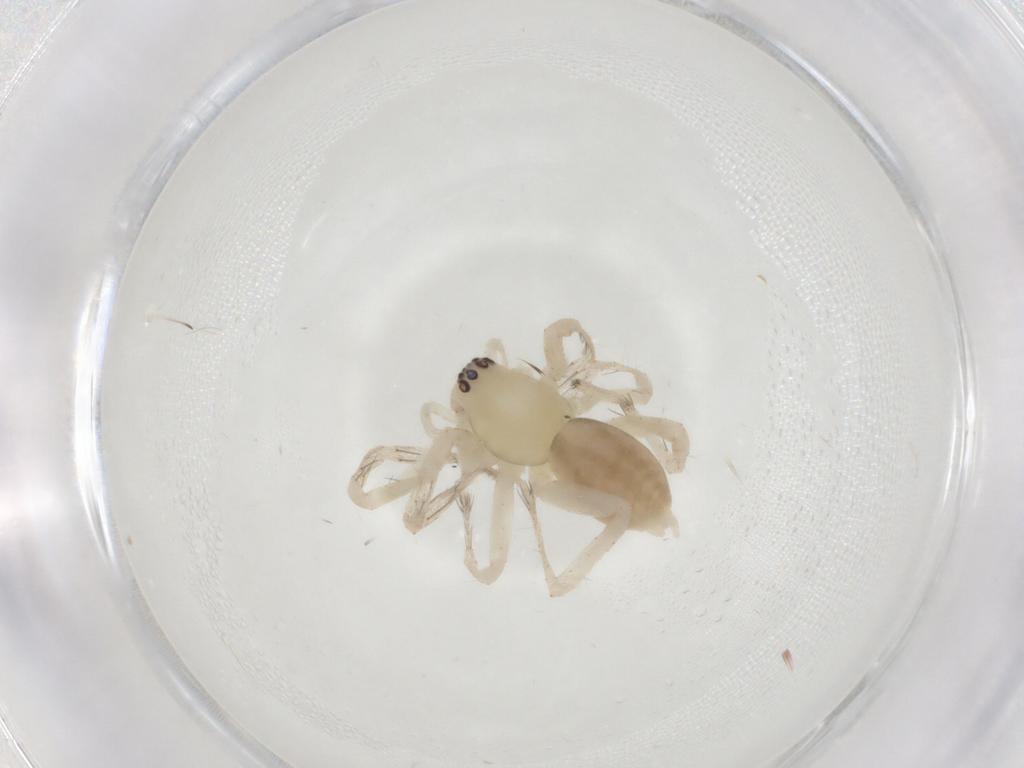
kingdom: Animalia
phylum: Arthropoda
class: Arachnida
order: Araneae
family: Anyphaenidae
